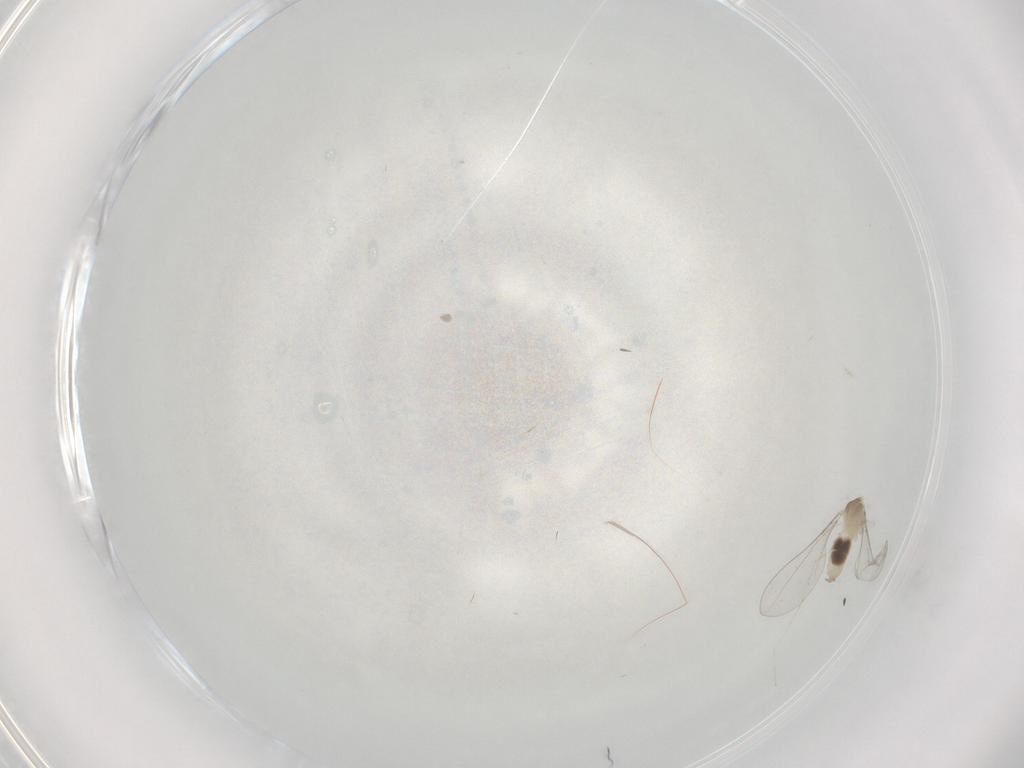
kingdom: Animalia
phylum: Arthropoda
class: Insecta
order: Diptera
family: Cecidomyiidae
